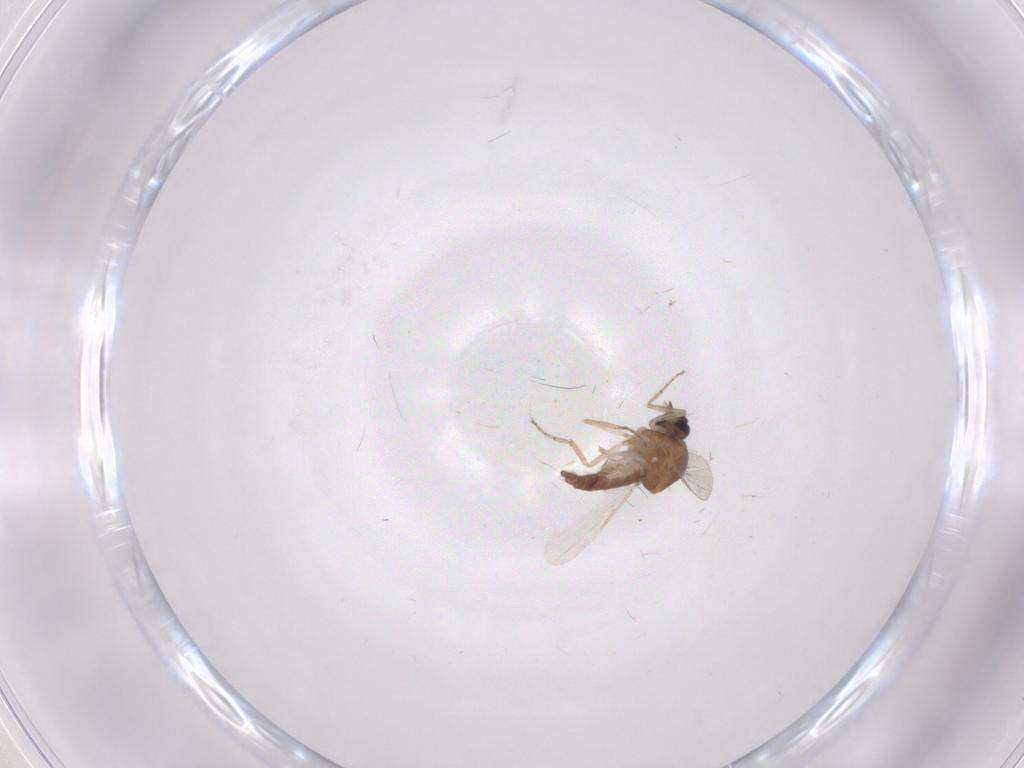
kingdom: Animalia
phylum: Arthropoda
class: Insecta
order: Diptera
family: Ceratopogonidae
